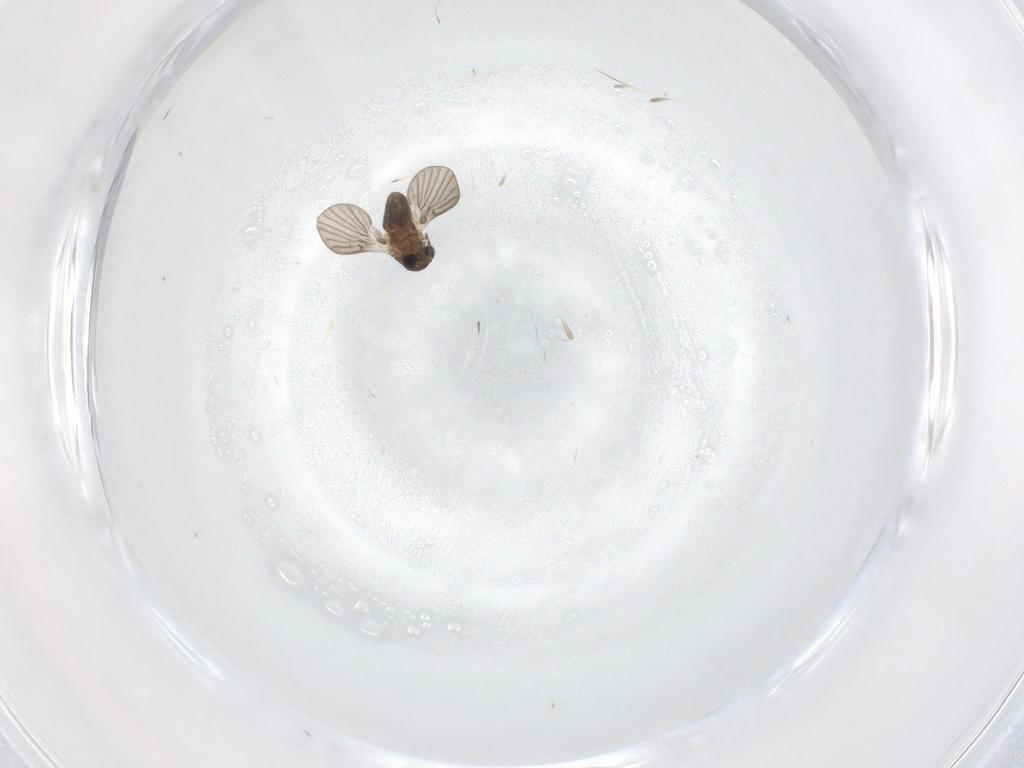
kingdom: Animalia
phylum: Arthropoda
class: Insecta
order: Diptera
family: Psychodidae
